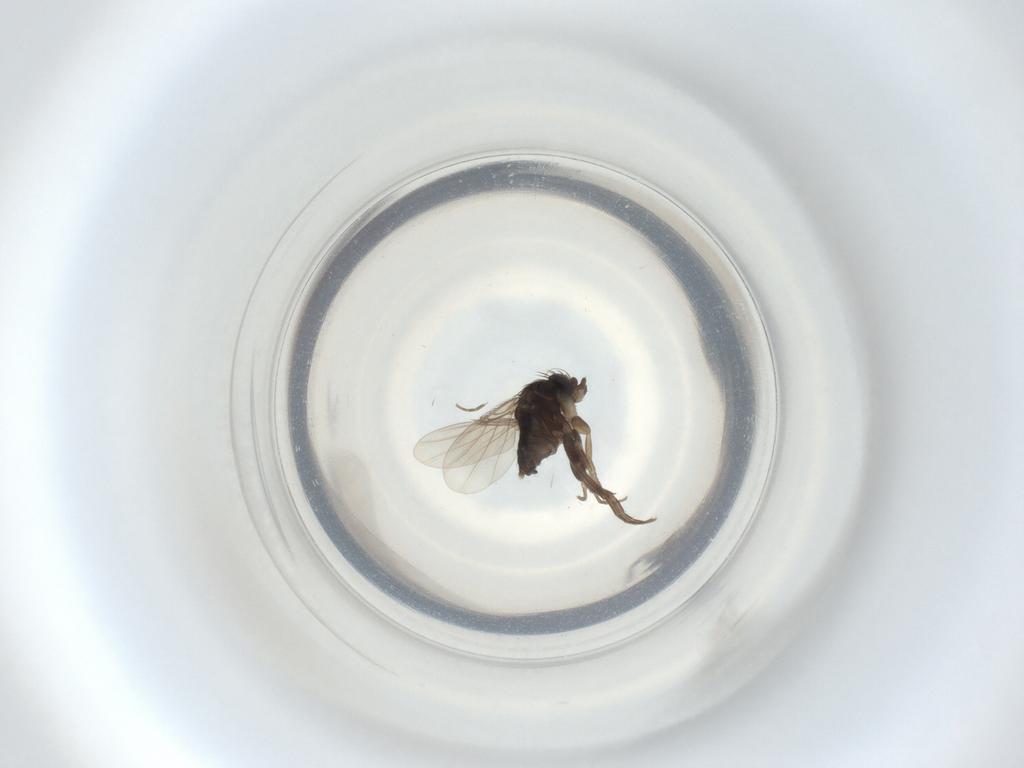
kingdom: Animalia
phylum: Arthropoda
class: Insecta
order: Diptera
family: Phoridae
